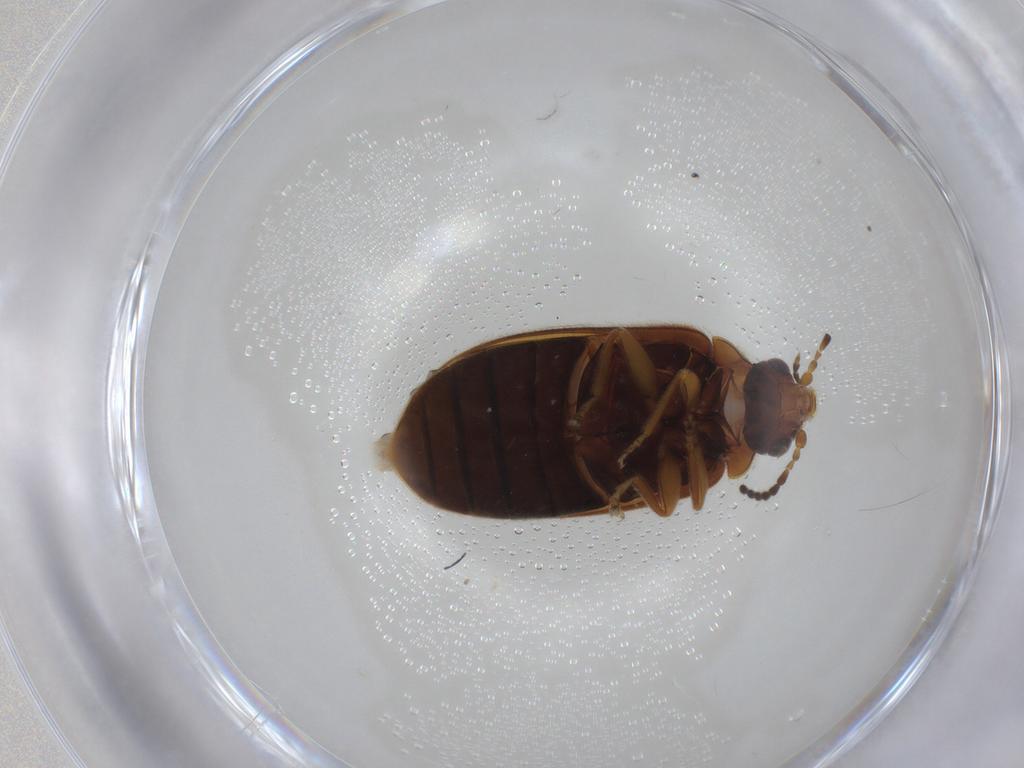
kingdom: Animalia
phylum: Arthropoda
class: Insecta
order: Coleoptera
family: Scirtidae
